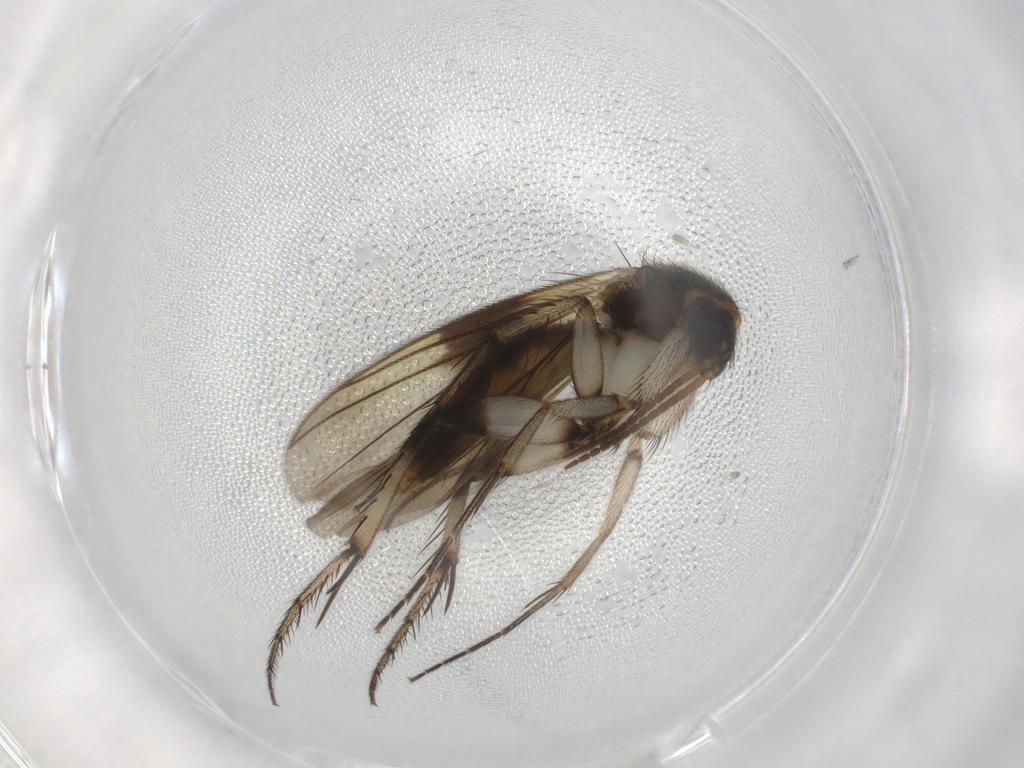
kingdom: Animalia
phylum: Arthropoda
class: Insecta
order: Diptera
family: Mycetophilidae
